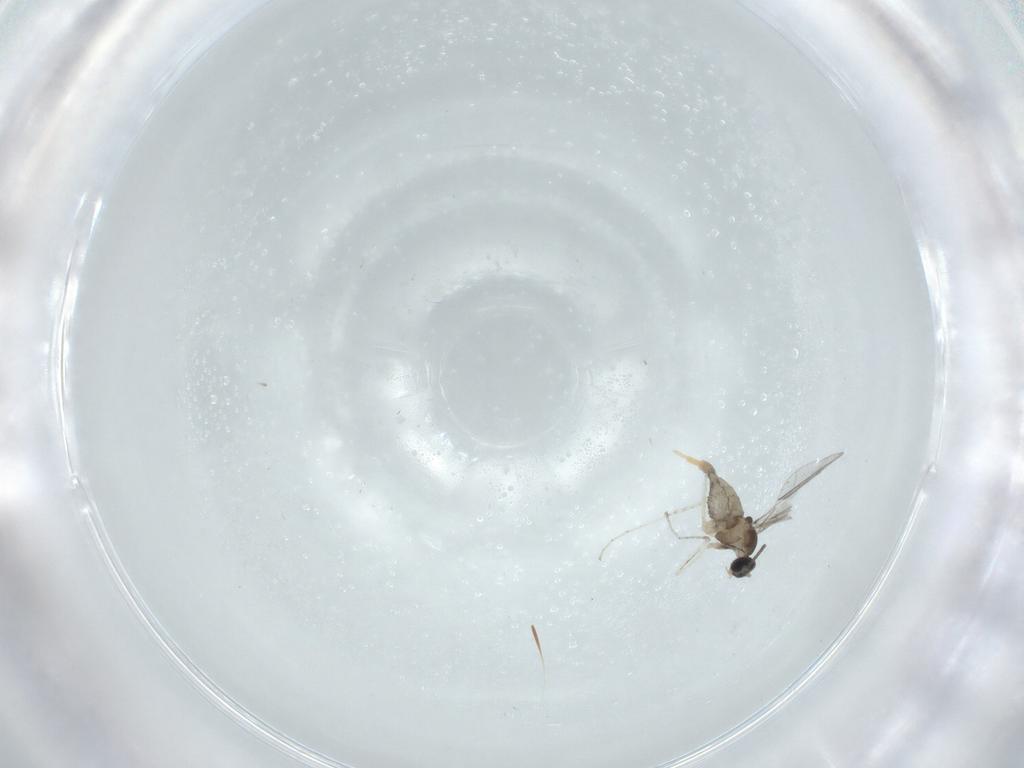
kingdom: Animalia
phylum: Arthropoda
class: Insecta
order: Diptera
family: Cecidomyiidae
